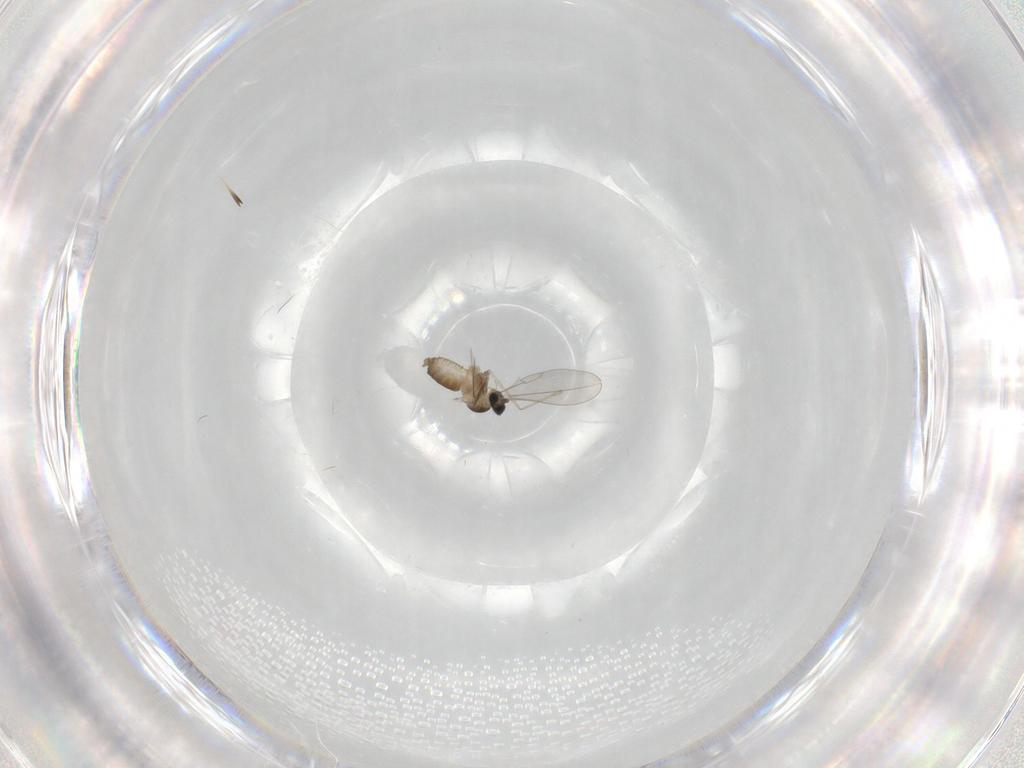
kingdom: Animalia
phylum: Arthropoda
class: Insecta
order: Diptera
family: Cecidomyiidae
